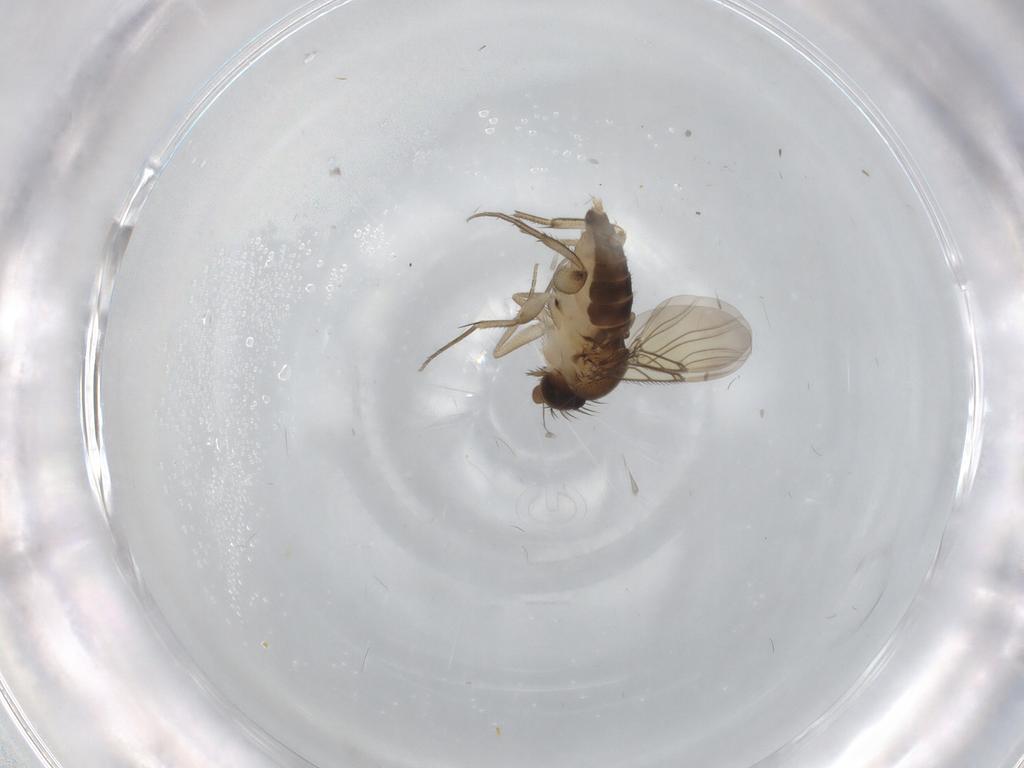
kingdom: Animalia
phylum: Arthropoda
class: Insecta
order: Diptera
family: Phoridae
